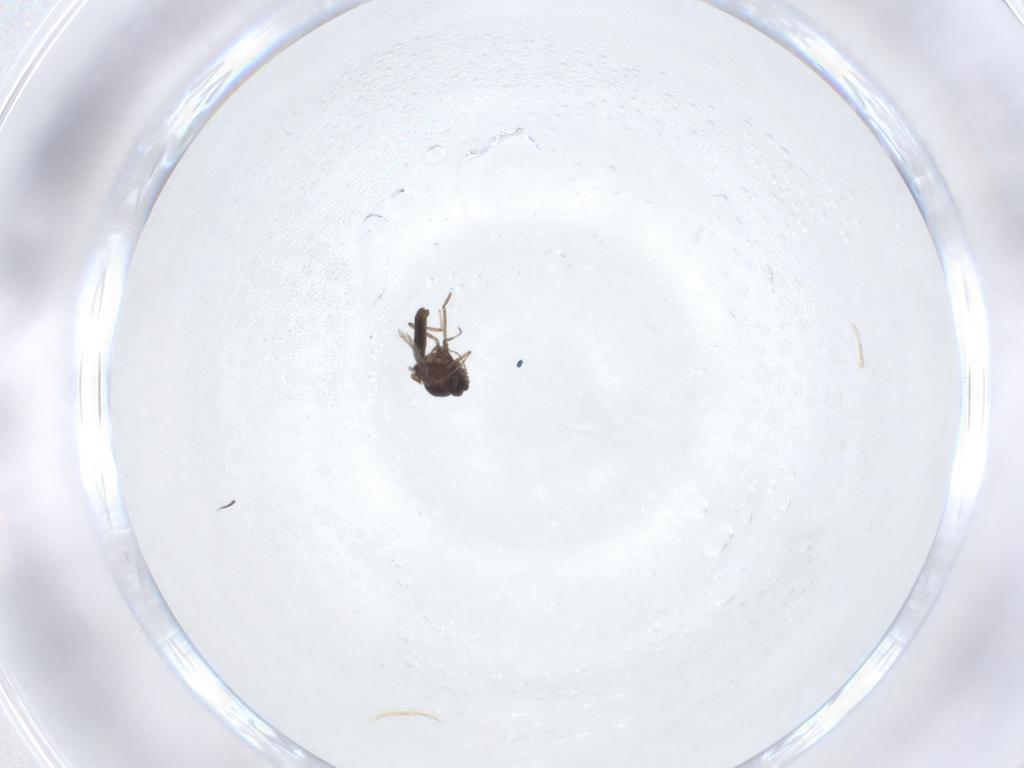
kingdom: Animalia
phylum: Arthropoda
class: Insecta
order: Diptera
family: Ceratopogonidae
